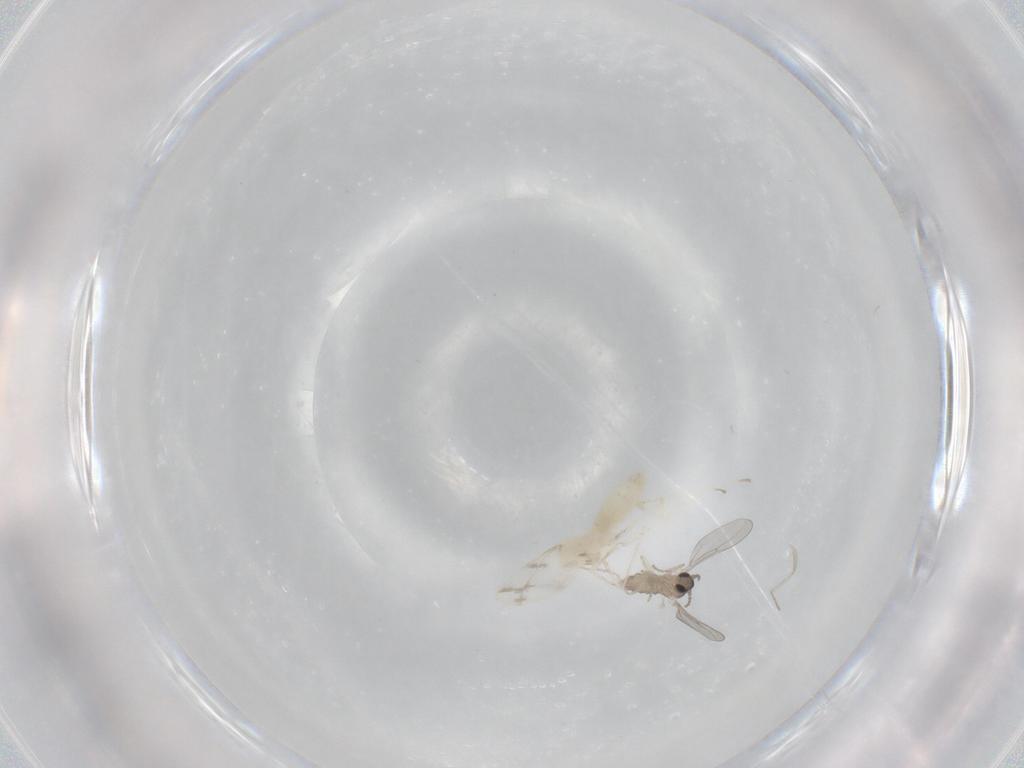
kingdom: Animalia
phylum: Arthropoda
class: Insecta
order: Diptera
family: Cecidomyiidae
